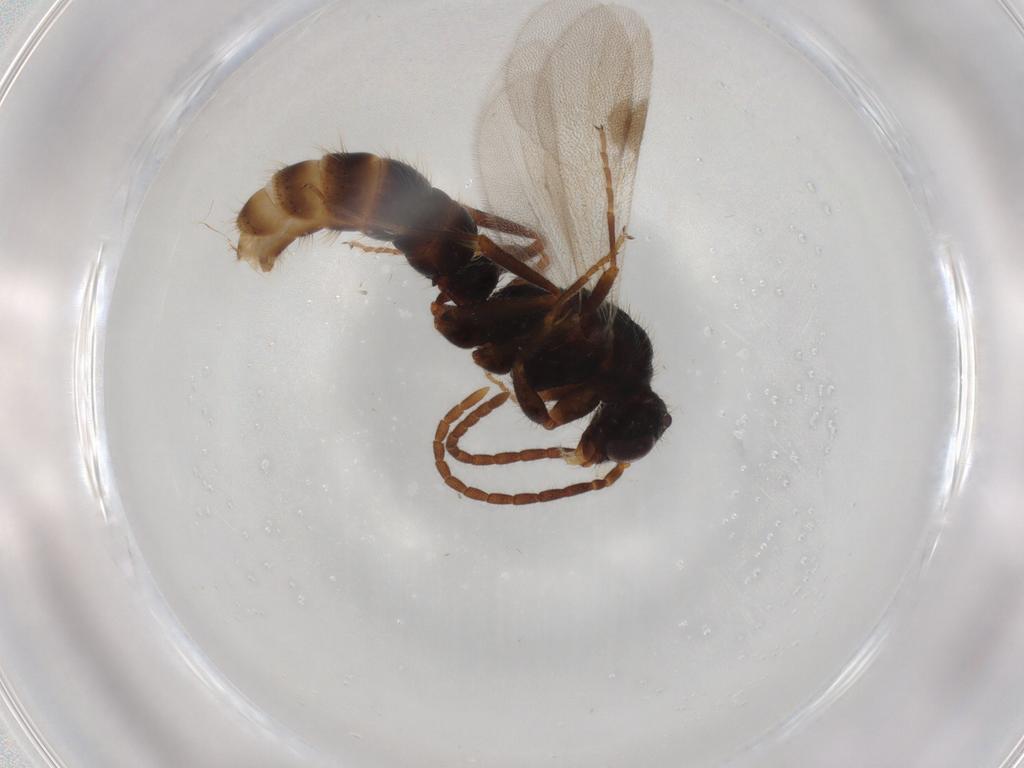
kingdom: Animalia
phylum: Arthropoda
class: Insecta
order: Hymenoptera
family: Formicidae
